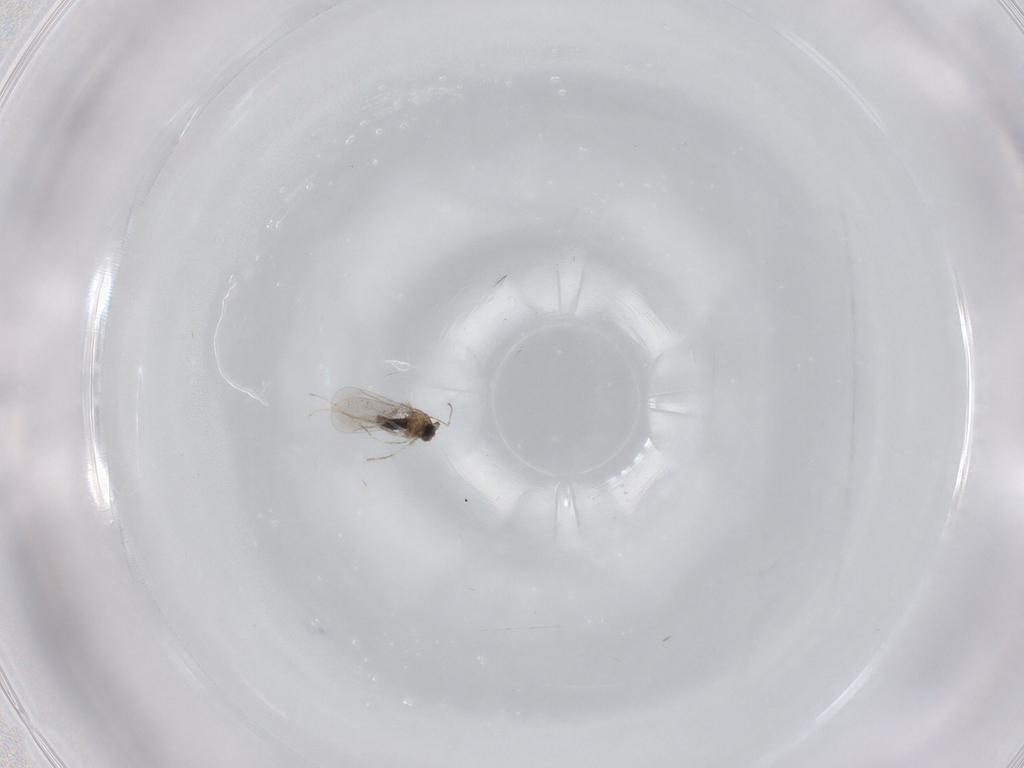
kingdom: Animalia
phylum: Arthropoda
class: Insecta
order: Diptera
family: Cecidomyiidae
